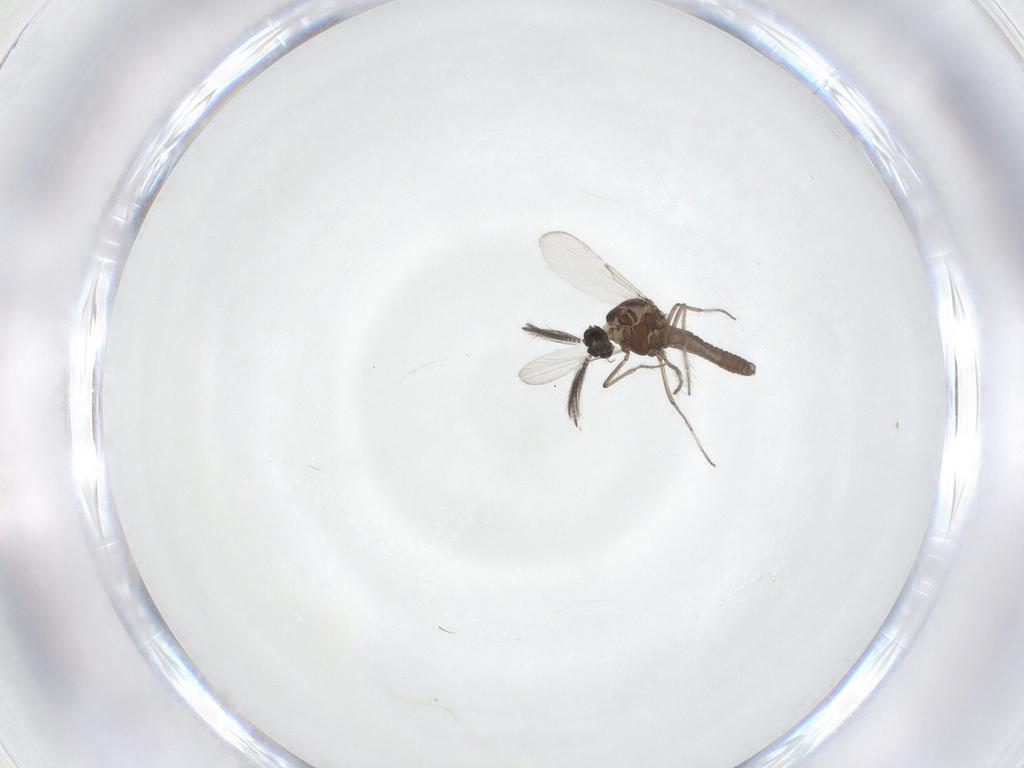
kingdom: Animalia
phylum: Arthropoda
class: Insecta
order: Diptera
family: Ceratopogonidae
